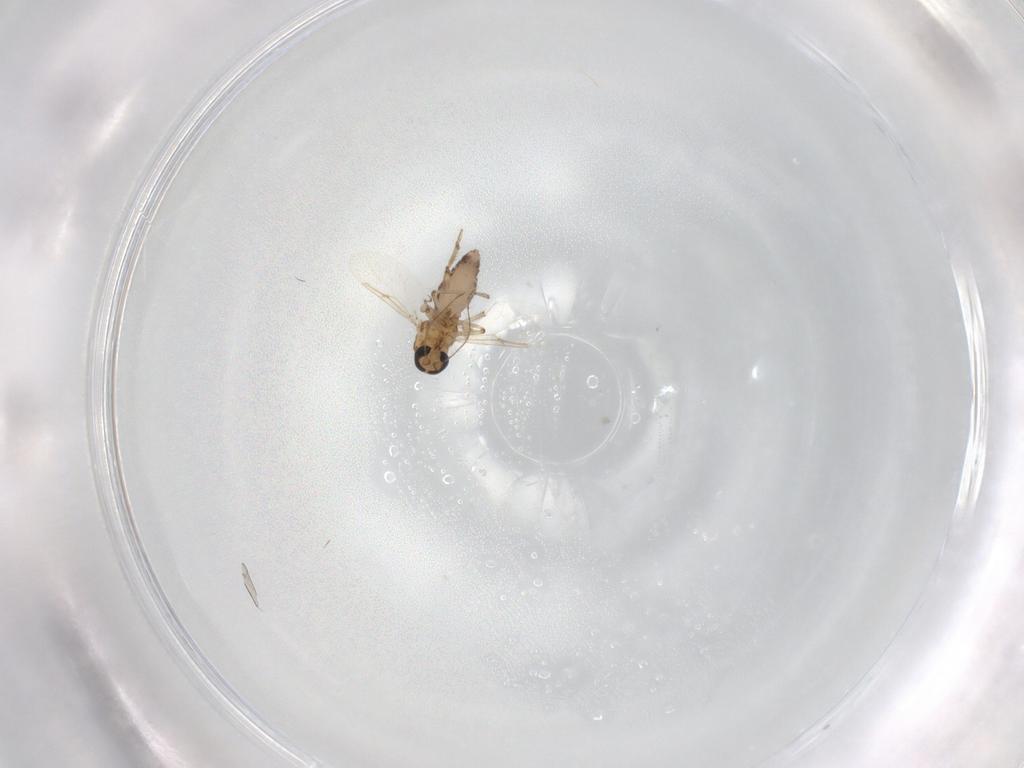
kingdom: Animalia
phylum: Arthropoda
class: Insecta
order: Diptera
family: Ceratopogonidae
